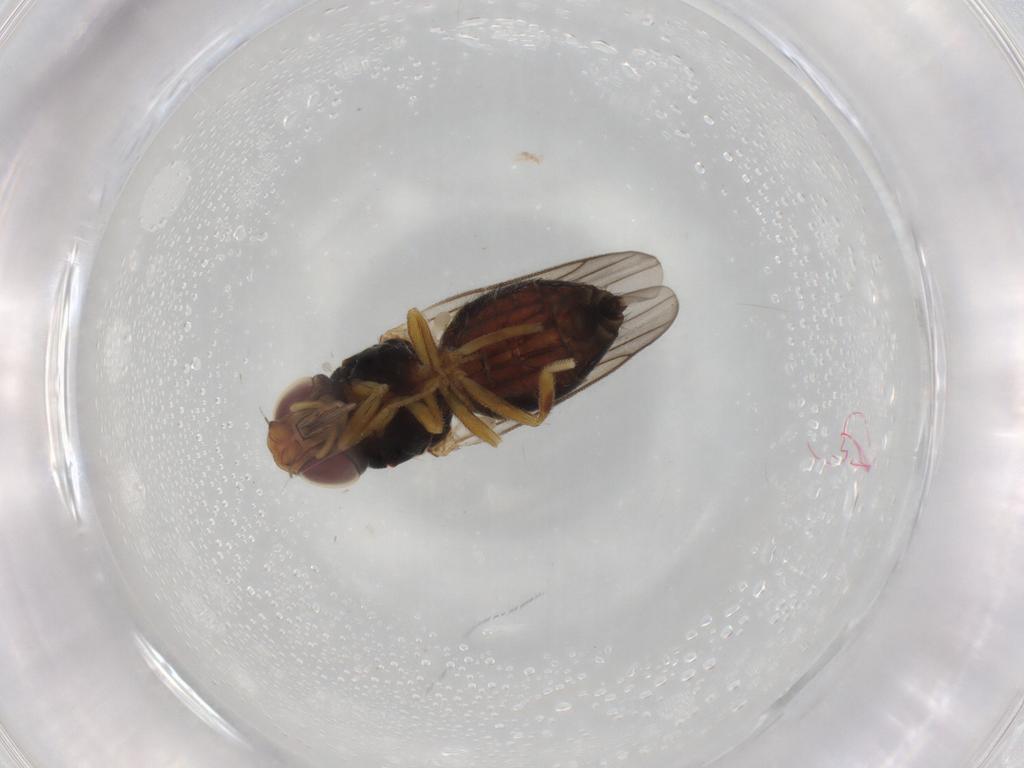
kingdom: Animalia
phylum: Arthropoda
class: Insecta
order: Diptera
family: Chloropidae
